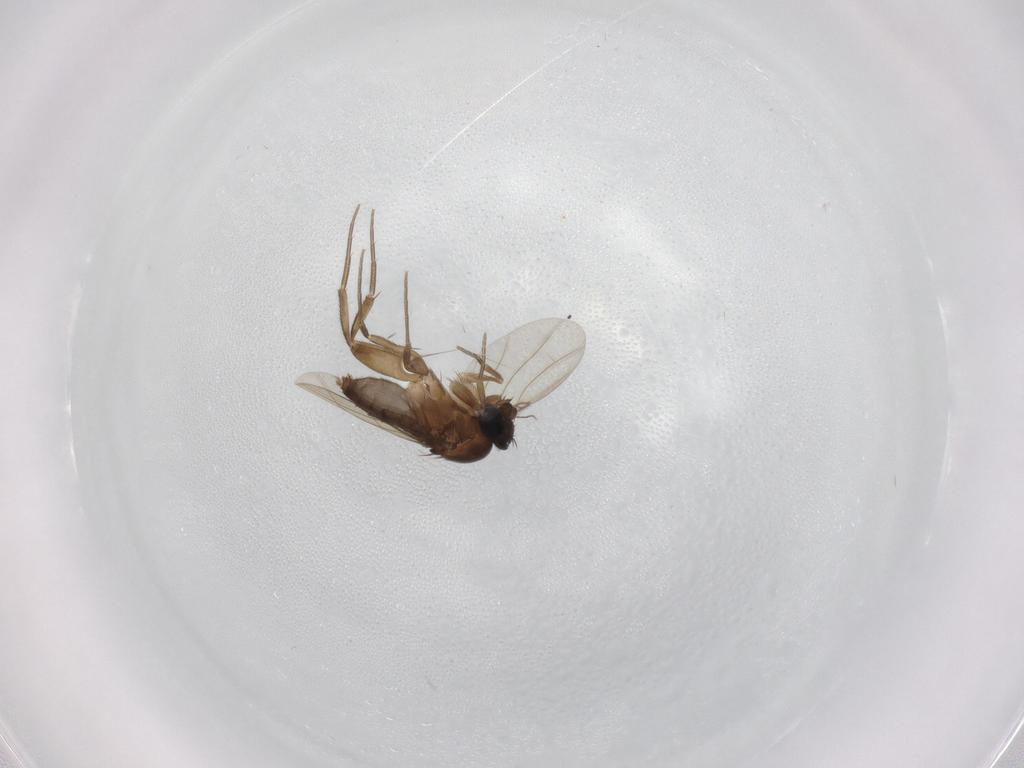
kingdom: Animalia
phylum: Arthropoda
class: Insecta
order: Diptera
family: Phoridae
